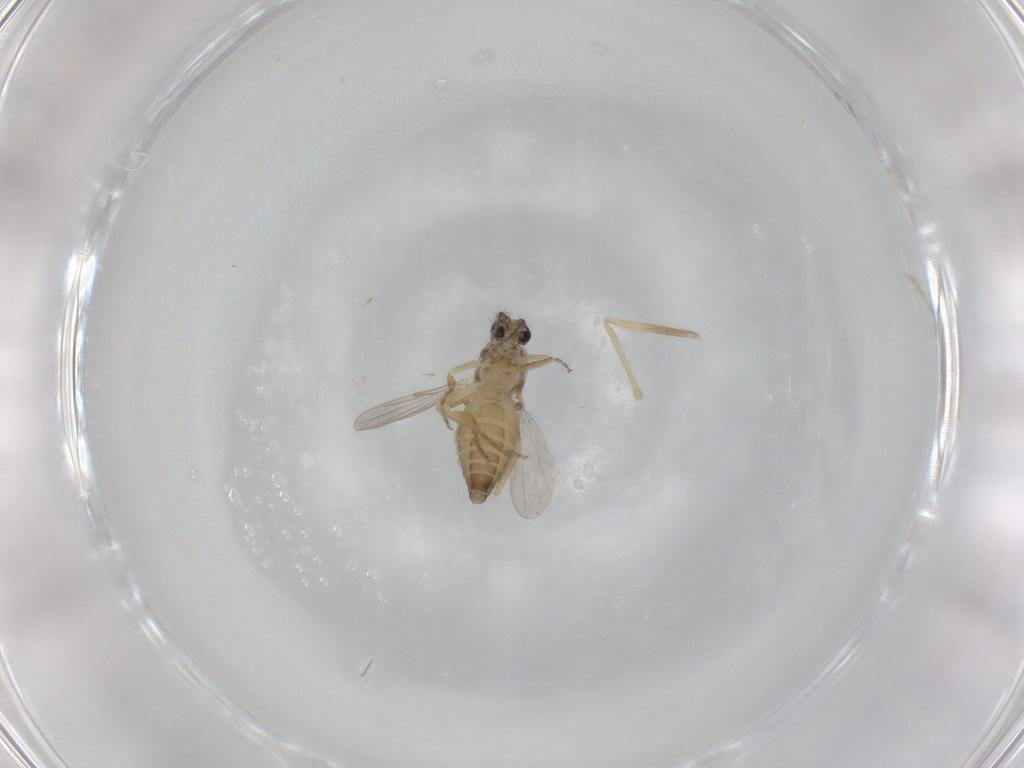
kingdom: Animalia
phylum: Arthropoda
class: Insecta
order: Diptera
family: Ceratopogonidae
